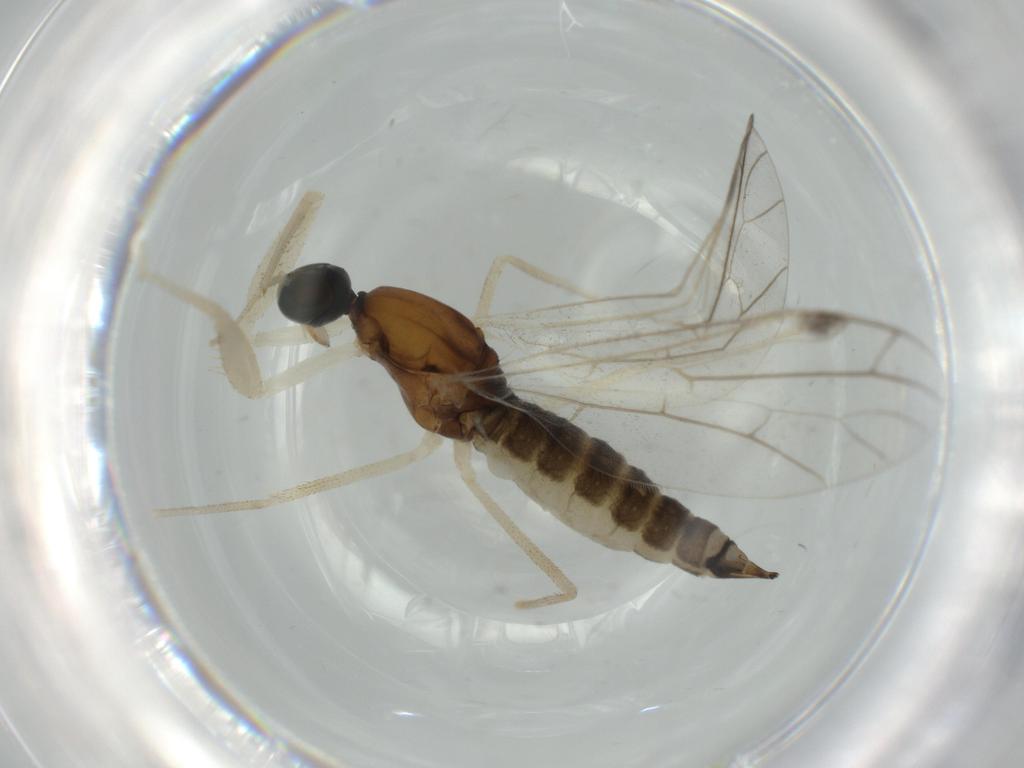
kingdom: Animalia
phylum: Arthropoda
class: Insecta
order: Diptera
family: Empididae
